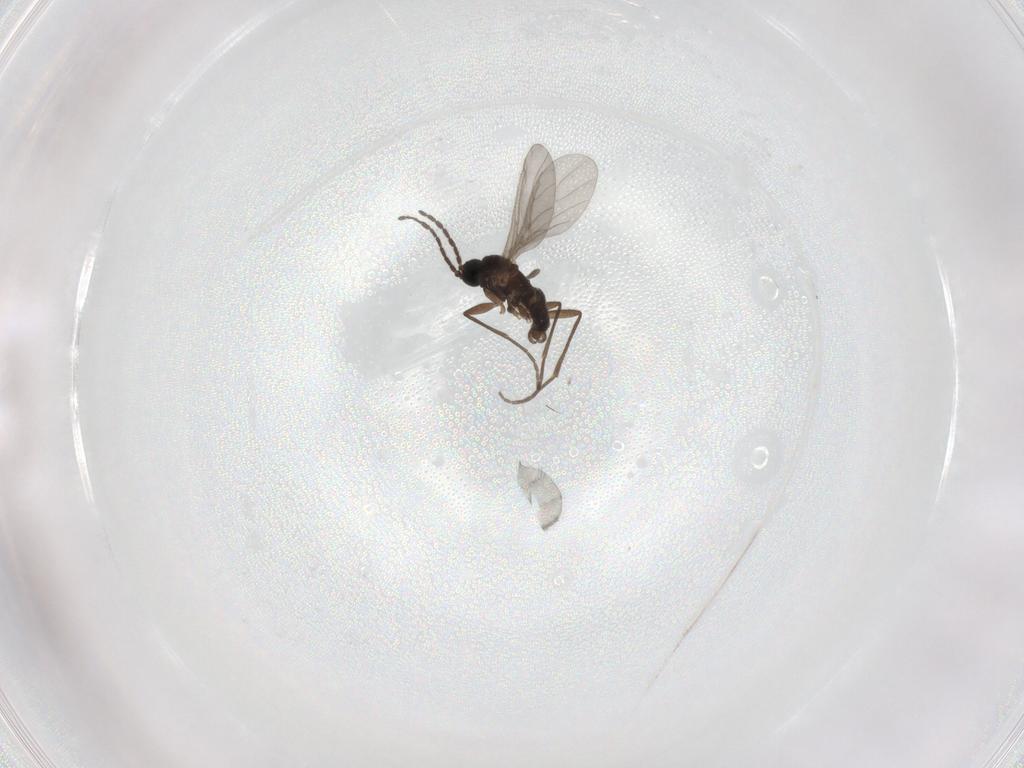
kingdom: Animalia
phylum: Arthropoda
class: Insecta
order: Diptera
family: Sciaridae
